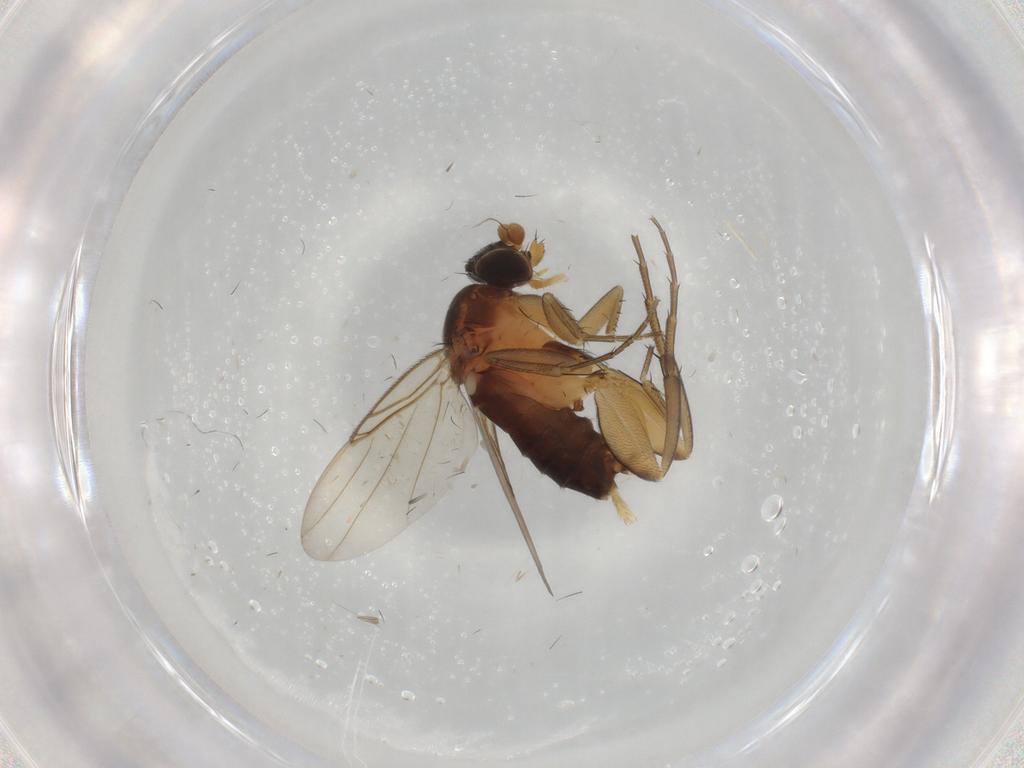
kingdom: Animalia
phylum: Arthropoda
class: Insecta
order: Diptera
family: Phoridae
